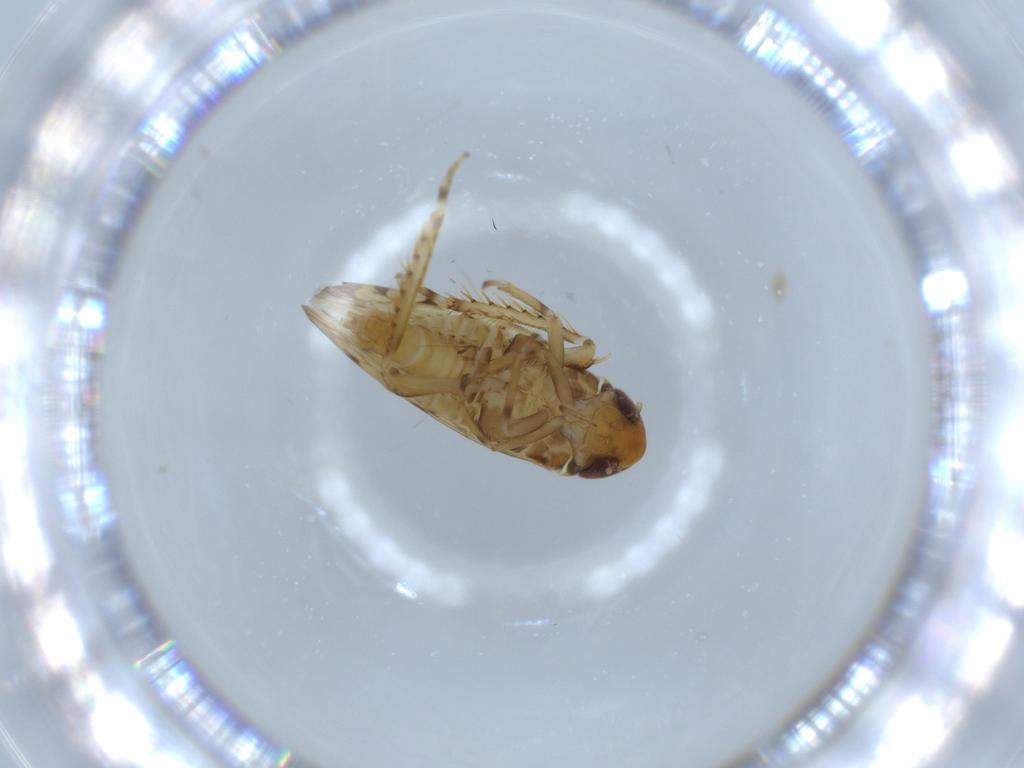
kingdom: Animalia
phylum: Arthropoda
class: Insecta
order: Hemiptera
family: Cicadellidae
